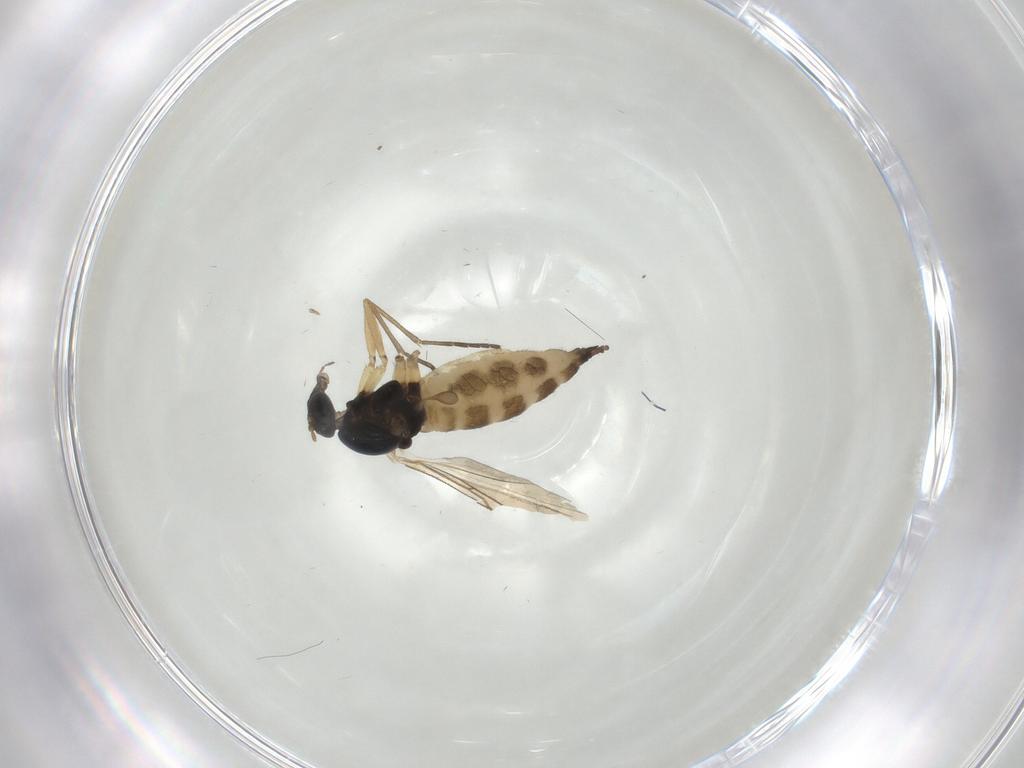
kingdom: Animalia
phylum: Arthropoda
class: Insecta
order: Diptera
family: Sciaridae
